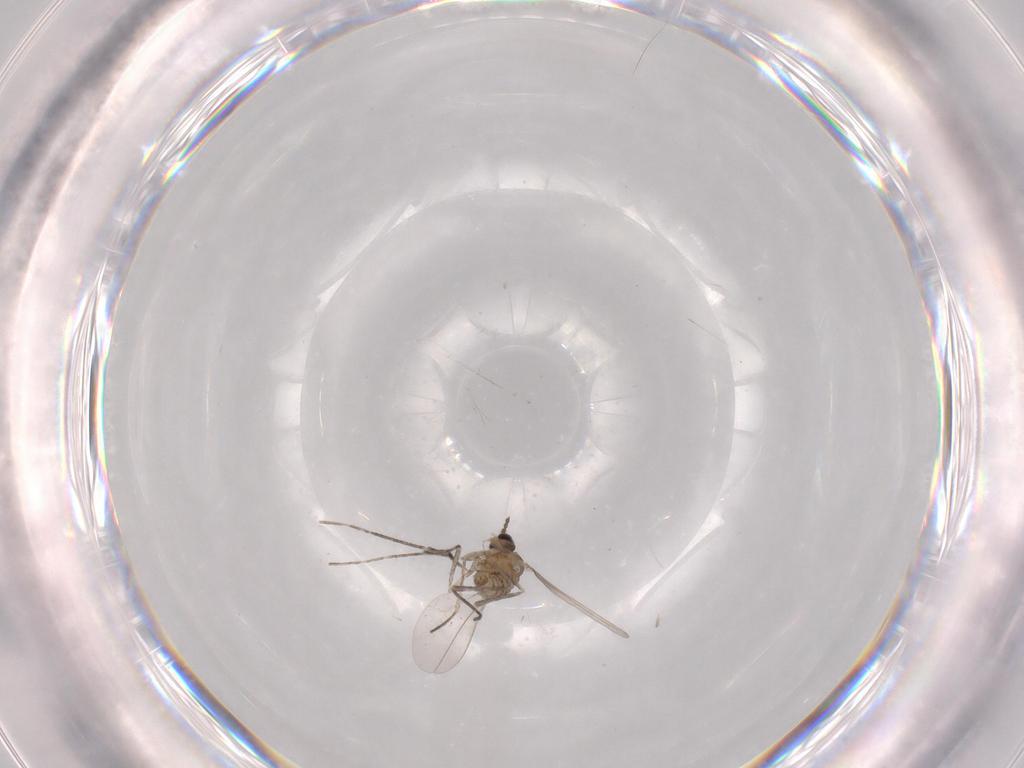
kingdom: Animalia
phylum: Arthropoda
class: Insecta
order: Diptera
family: Cecidomyiidae
